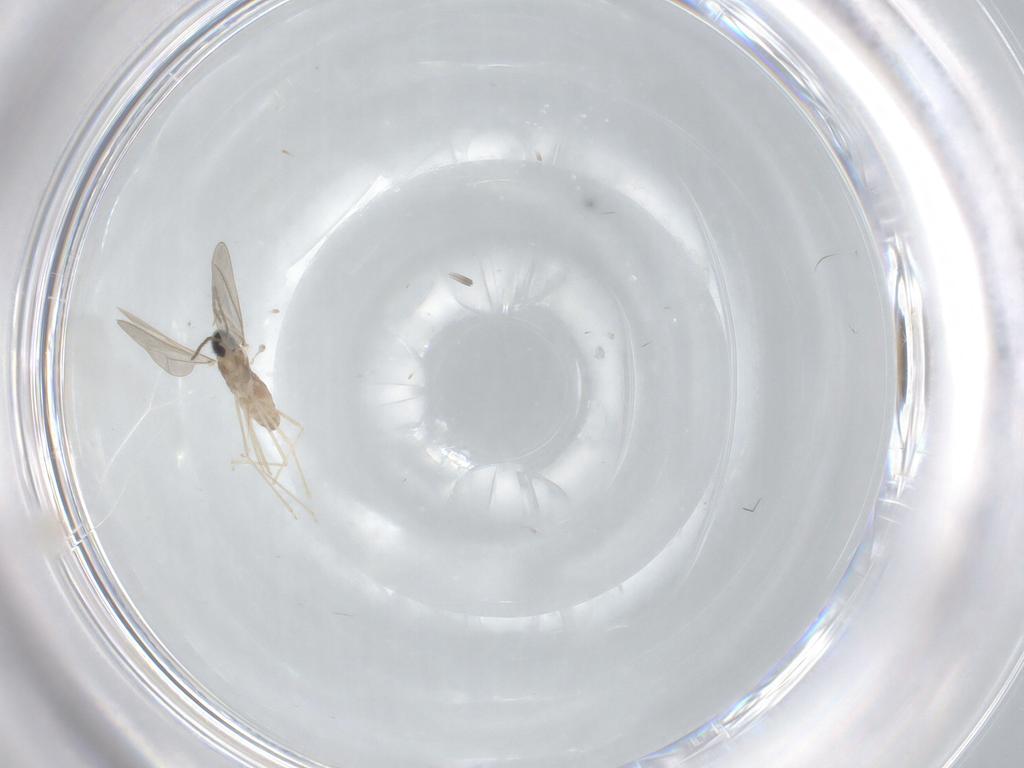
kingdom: Animalia
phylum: Arthropoda
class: Insecta
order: Diptera
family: Cecidomyiidae
